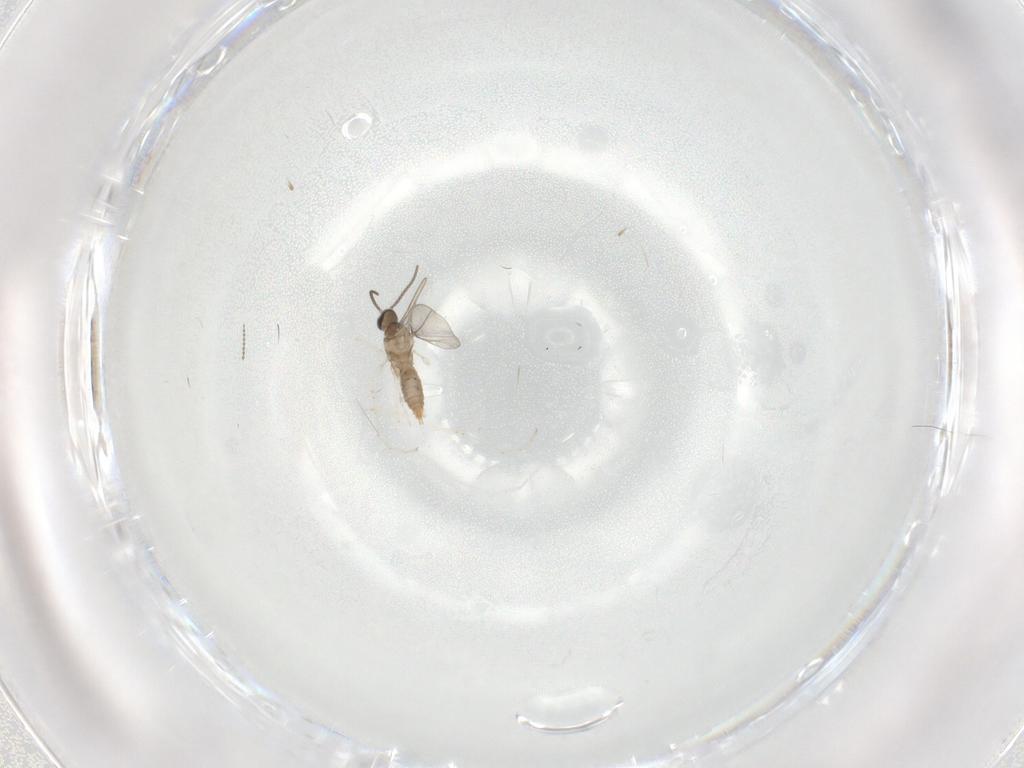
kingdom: Animalia
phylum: Arthropoda
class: Insecta
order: Diptera
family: Cecidomyiidae
